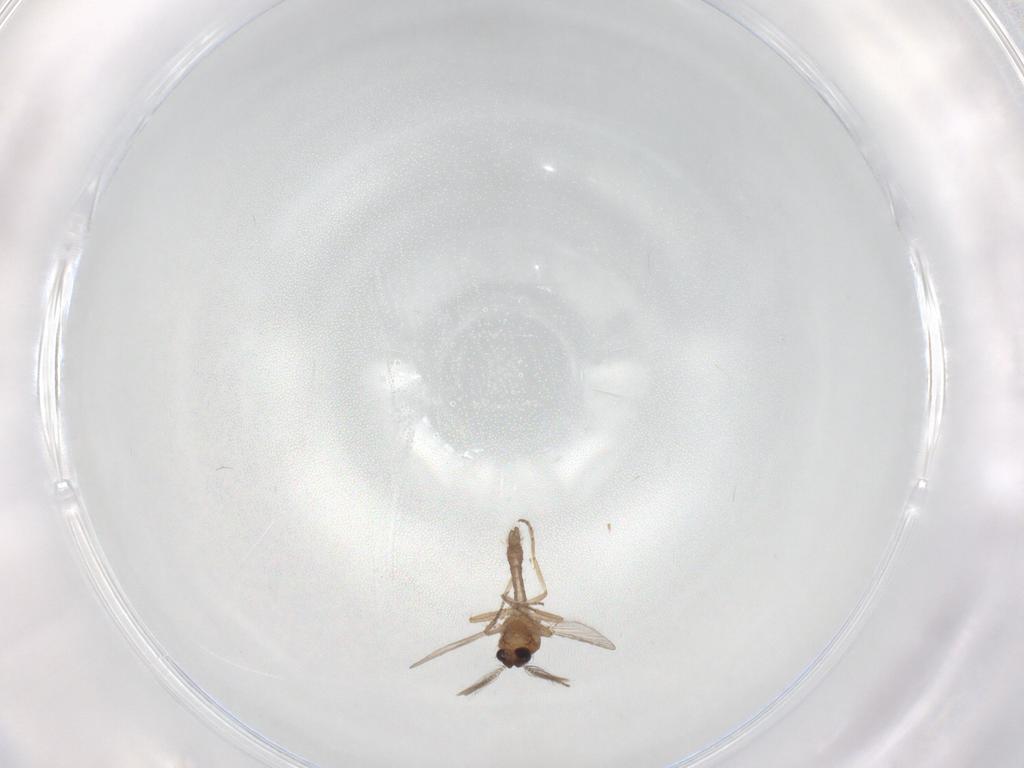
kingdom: Animalia
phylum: Arthropoda
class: Insecta
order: Diptera
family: Ceratopogonidae
